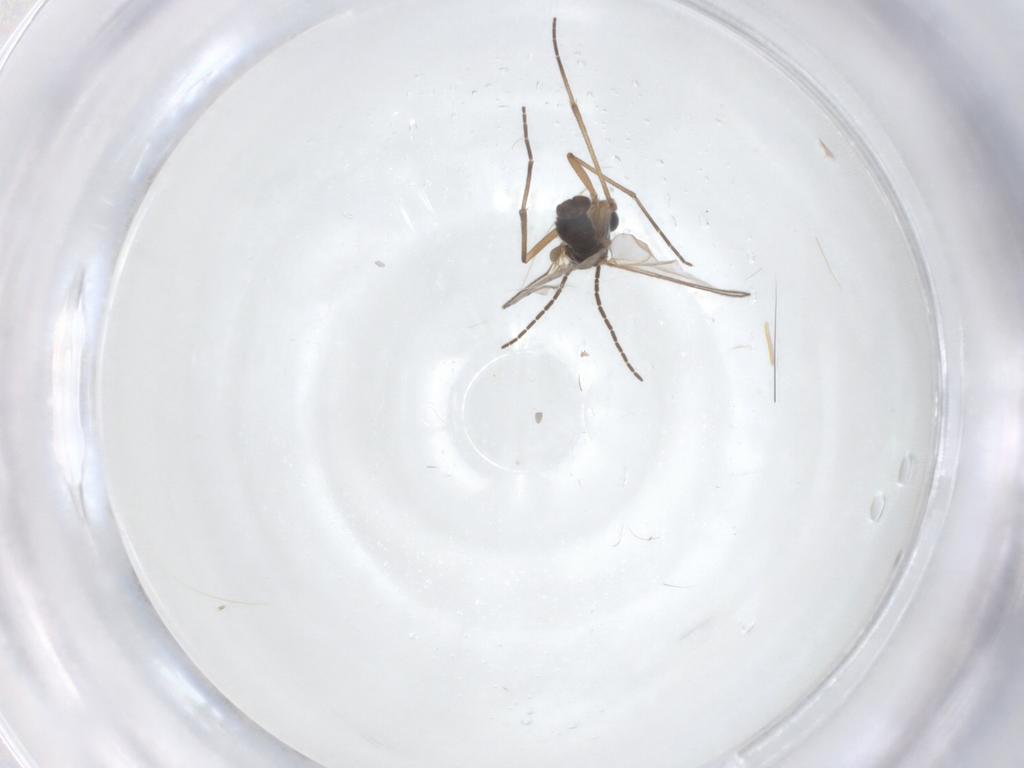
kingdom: Animalia
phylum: Arthropoda
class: Insecta
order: Diptera
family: Sciaridae
